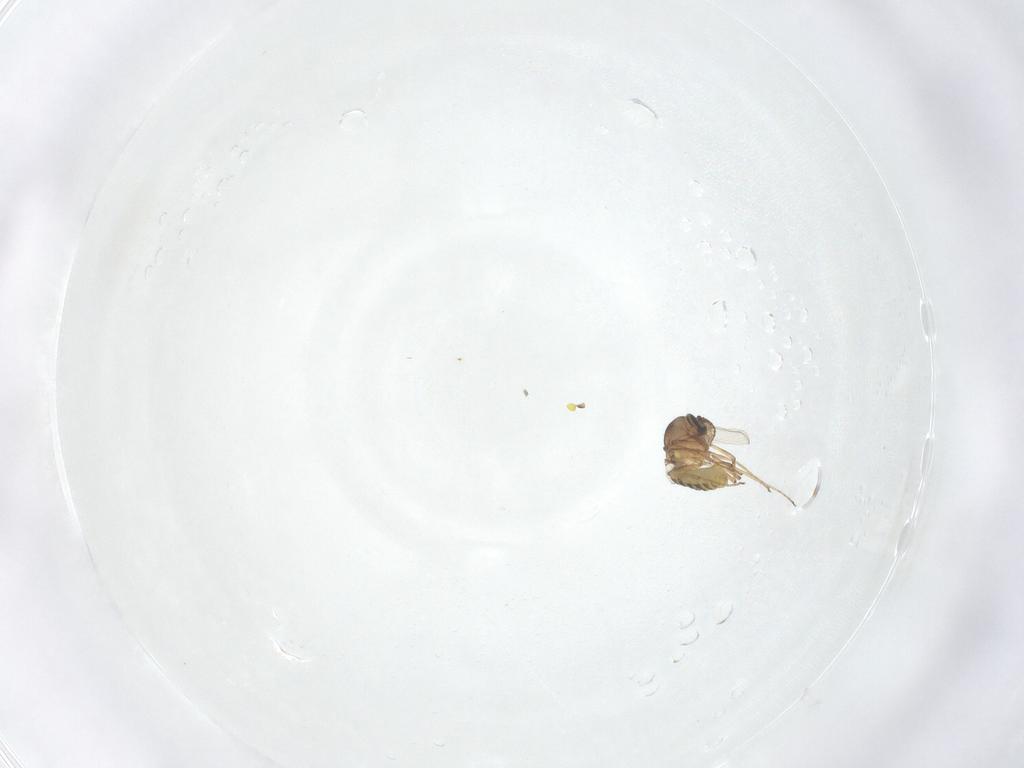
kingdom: Animalia
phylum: Arthropoda
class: Insecta
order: Diptera
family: Ceratopogonidae
